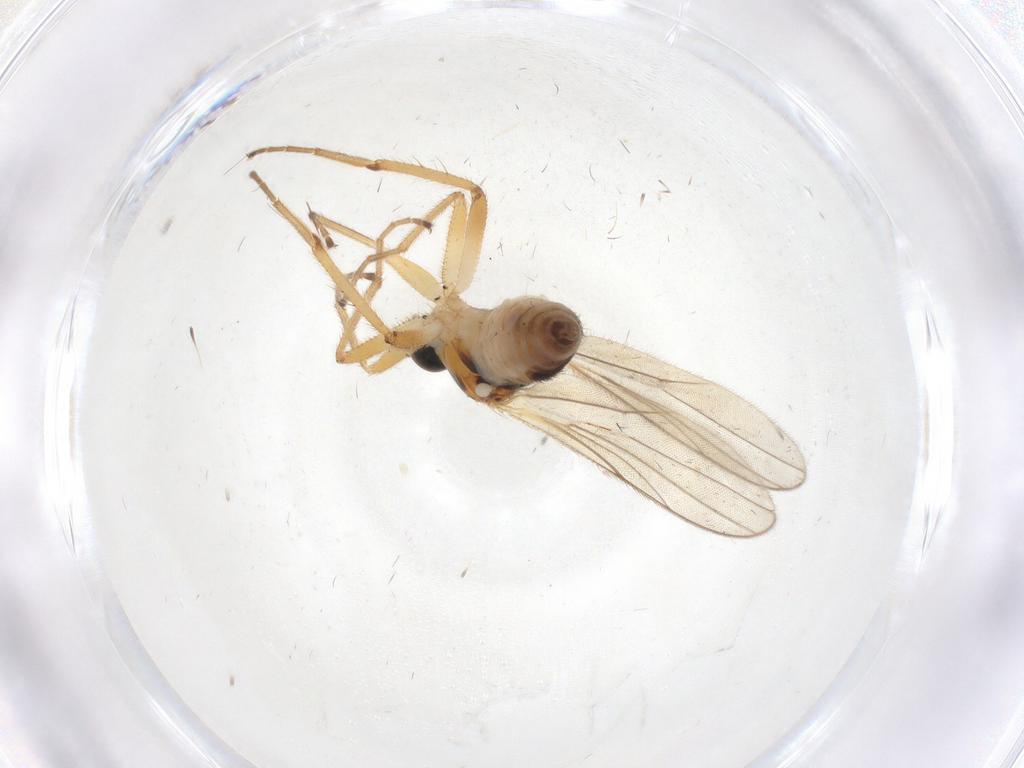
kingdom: Animalia
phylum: Arthropoda
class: Insecta
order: Diptera
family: Hybotidae
